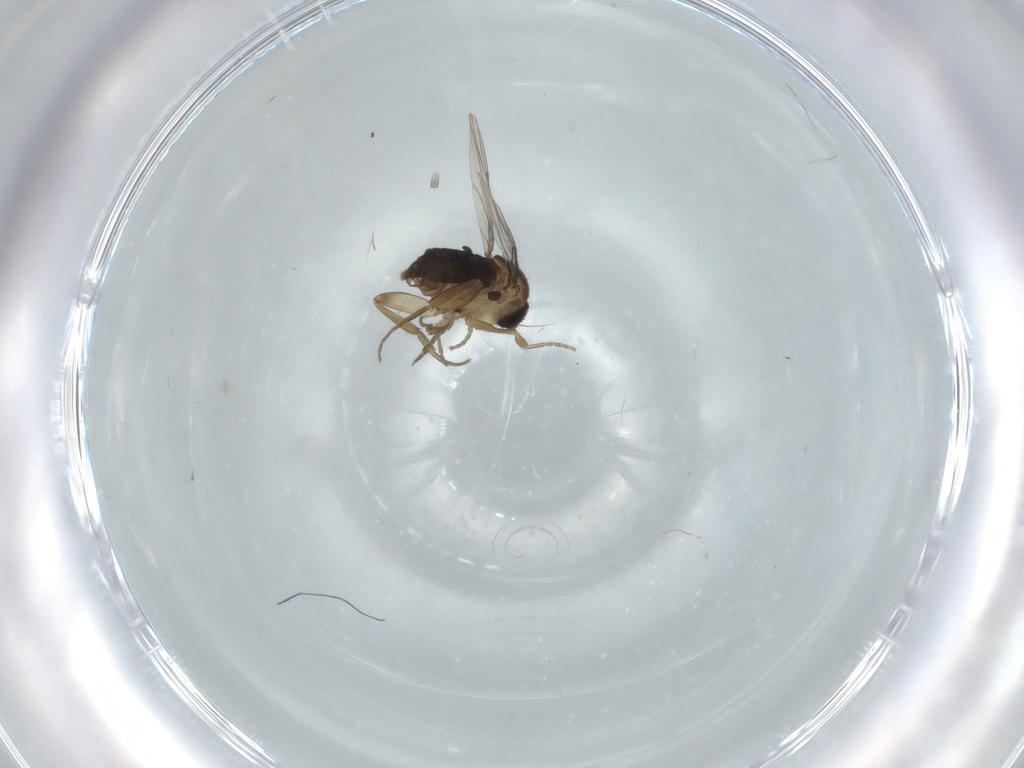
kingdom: Animalia
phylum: Arthropoda
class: Insecta
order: Diptera
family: Phoridae
